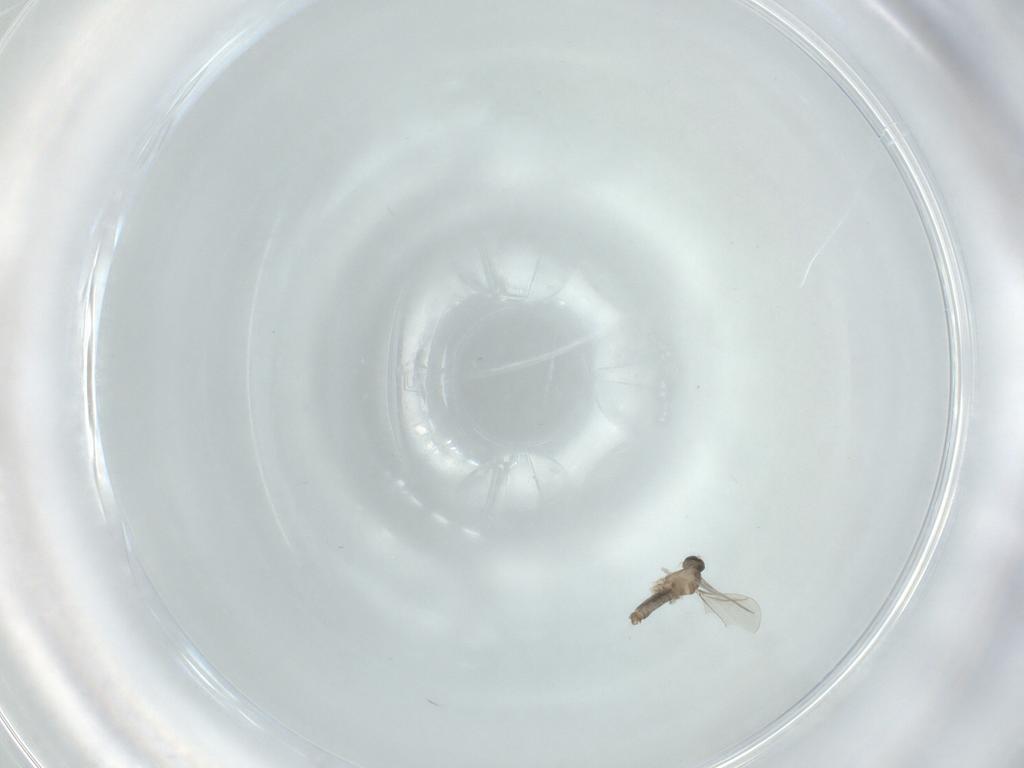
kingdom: Animalia
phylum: Arthropoda
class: Insecta
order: Diptera
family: Cecidomyiidae
